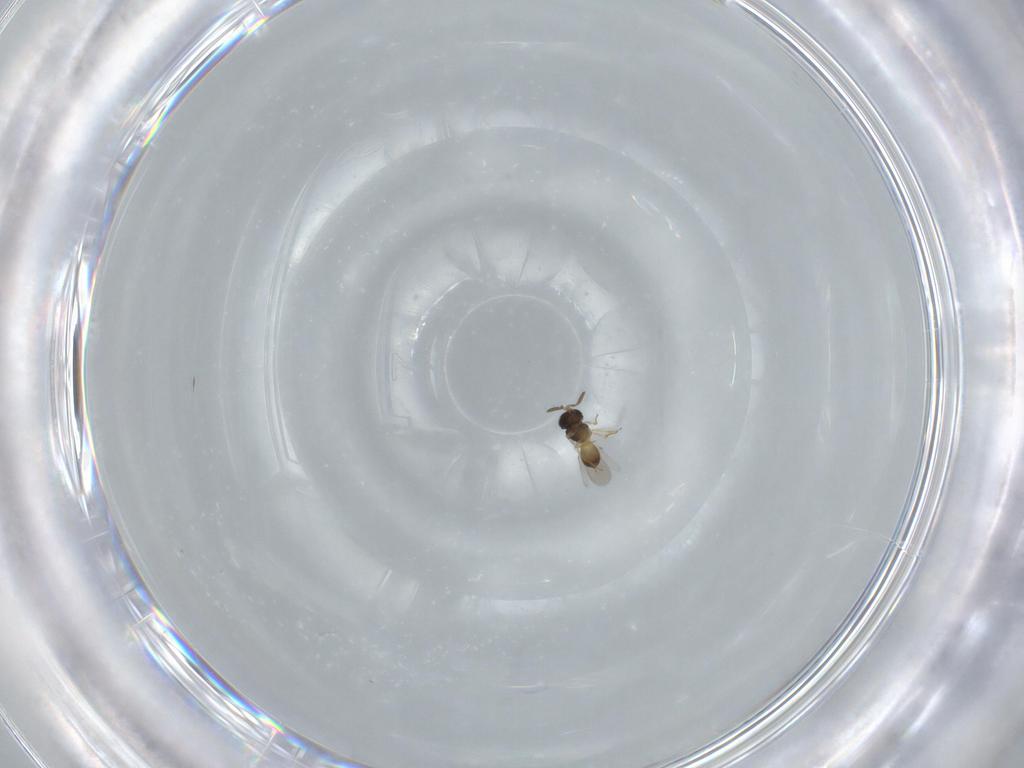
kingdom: Animalia
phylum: Arthropoda
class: Insecta
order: Hymenoptera
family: Scelionidae
